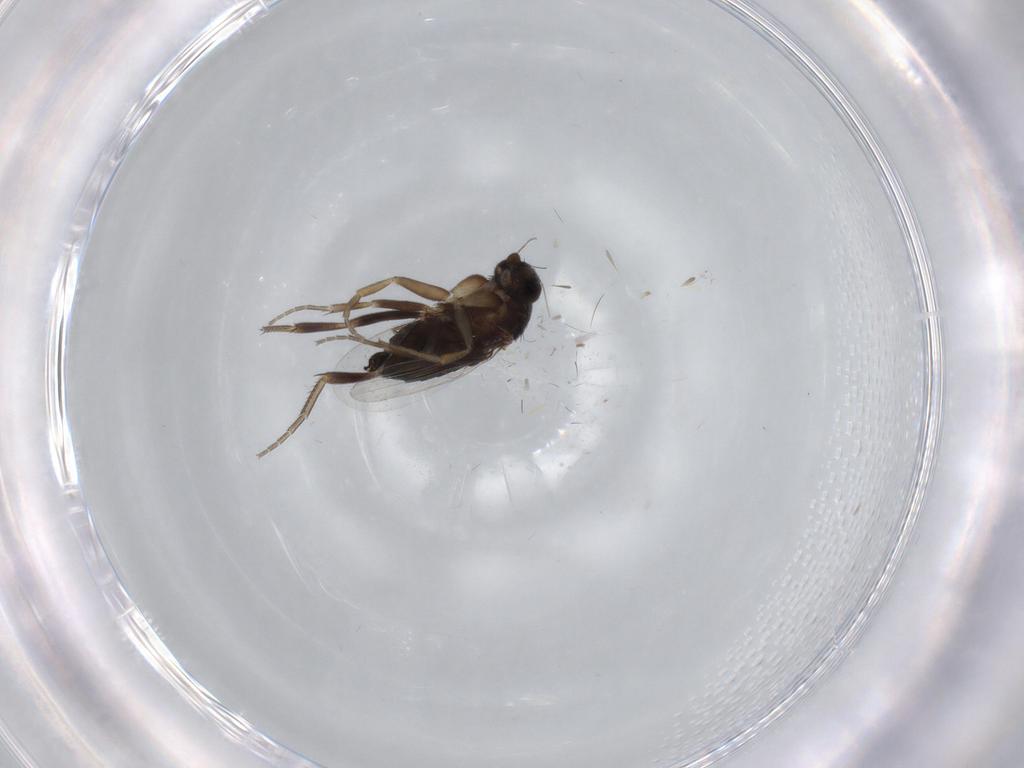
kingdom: Animalia
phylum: Arthropoda
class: Insecta
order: Diptera
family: Phoridae
